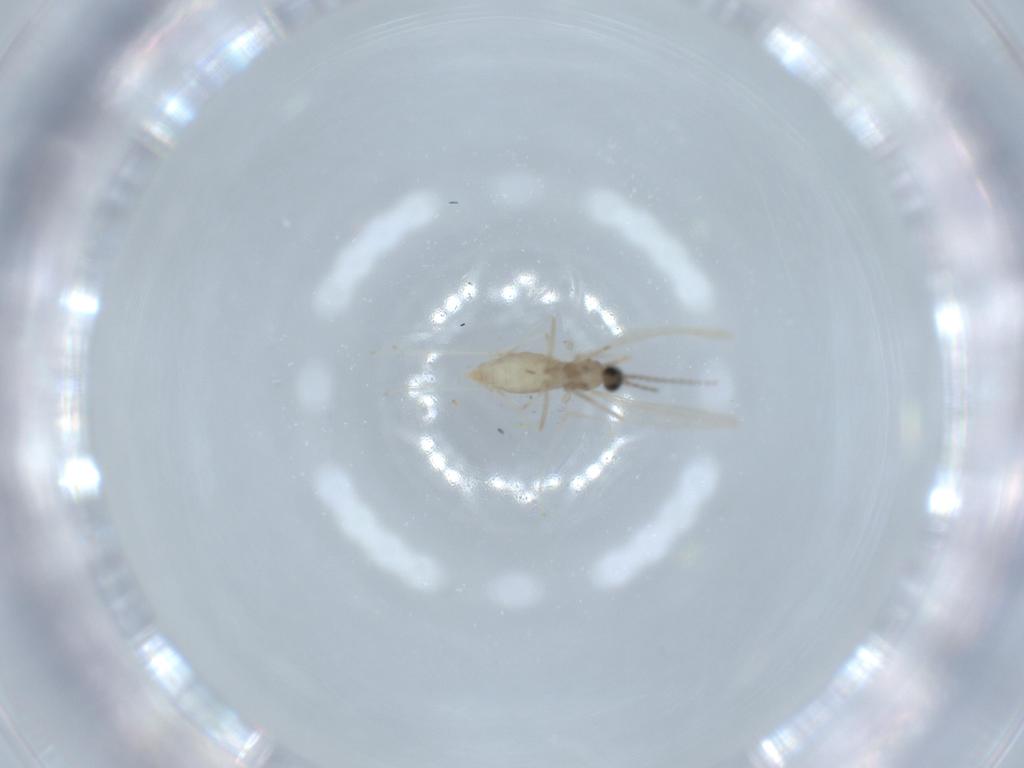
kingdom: Animalia
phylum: Arthropoda
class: Insecta
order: Diptera
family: Cecidomyiidae
